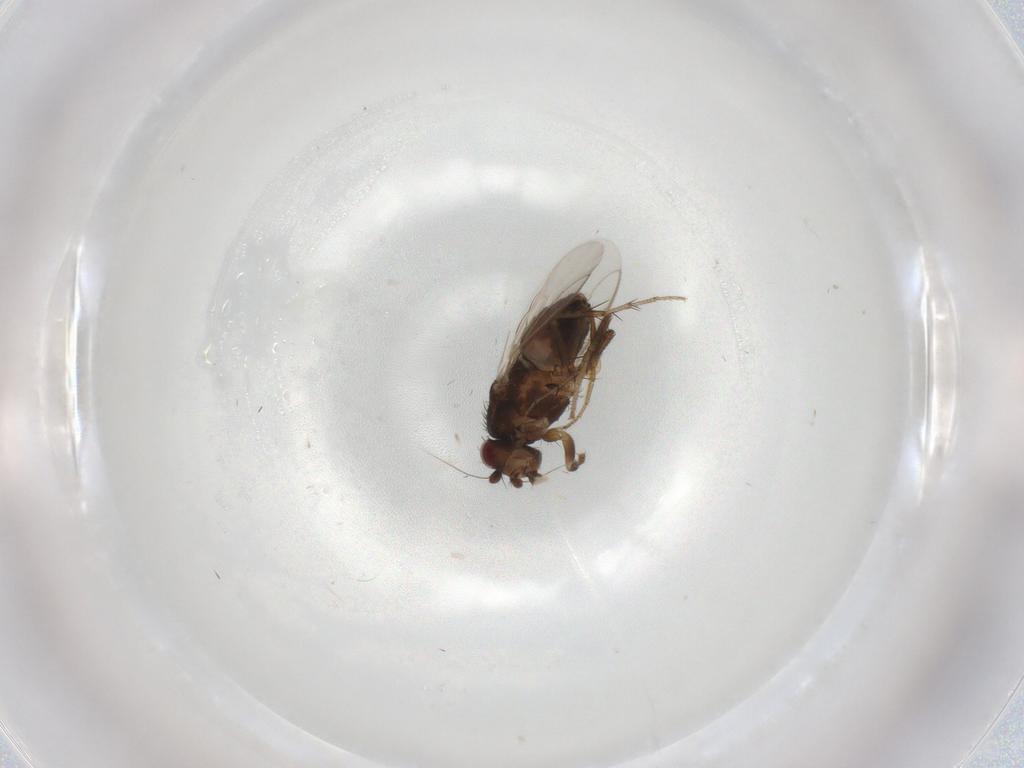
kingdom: Animalia
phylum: Arthropoda
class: Insecta
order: Diptera
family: Sphaeroceridae
